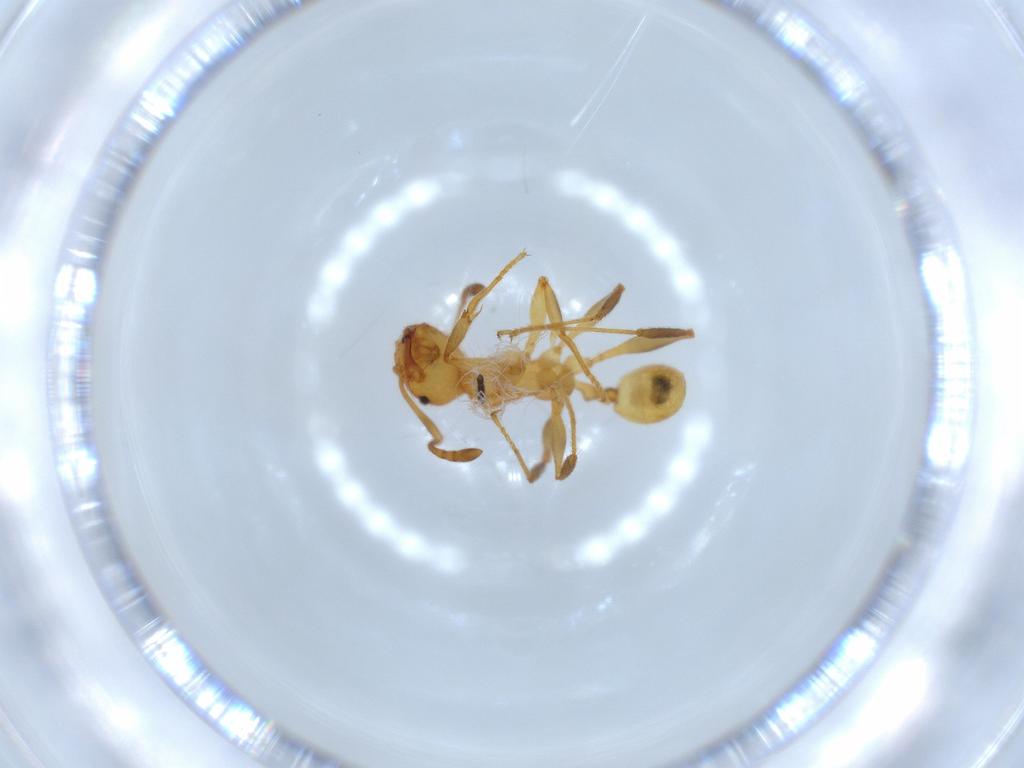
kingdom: Animalia
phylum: Arthropoda
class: Insecta
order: Hymenoptera
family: Formicidae
